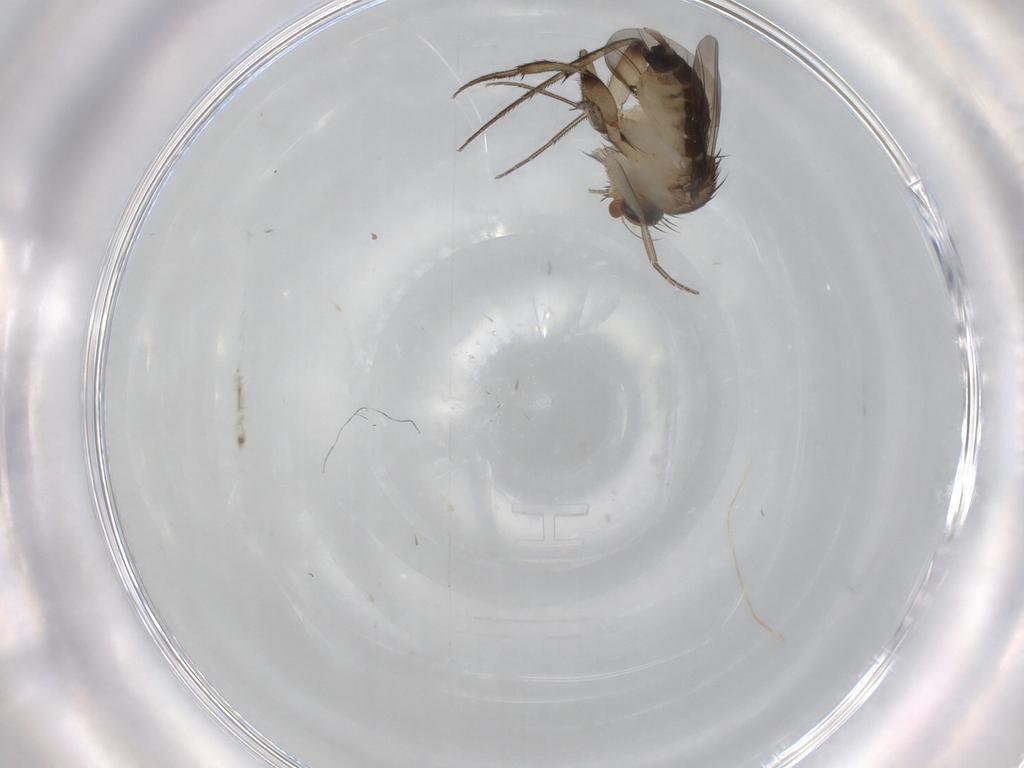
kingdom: Animalia
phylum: Arthropoda
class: Insecta
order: Diptera
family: Phoridae
